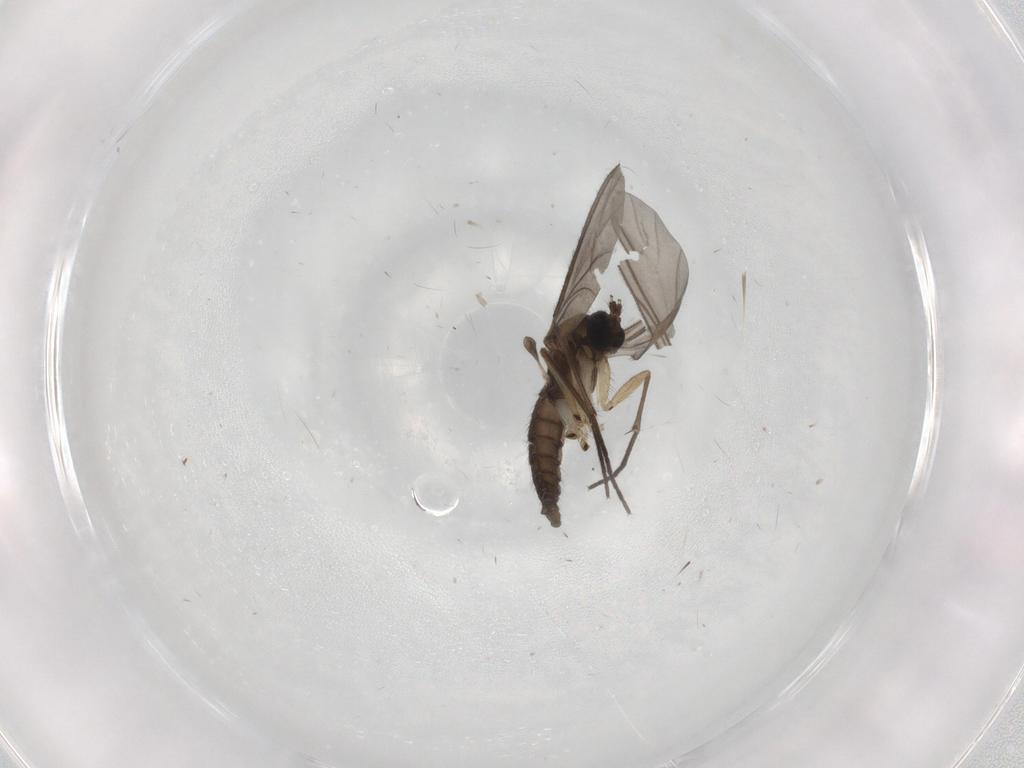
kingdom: Animalia
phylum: Arthropoda
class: Insecta
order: Diptera
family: Sciaridae
